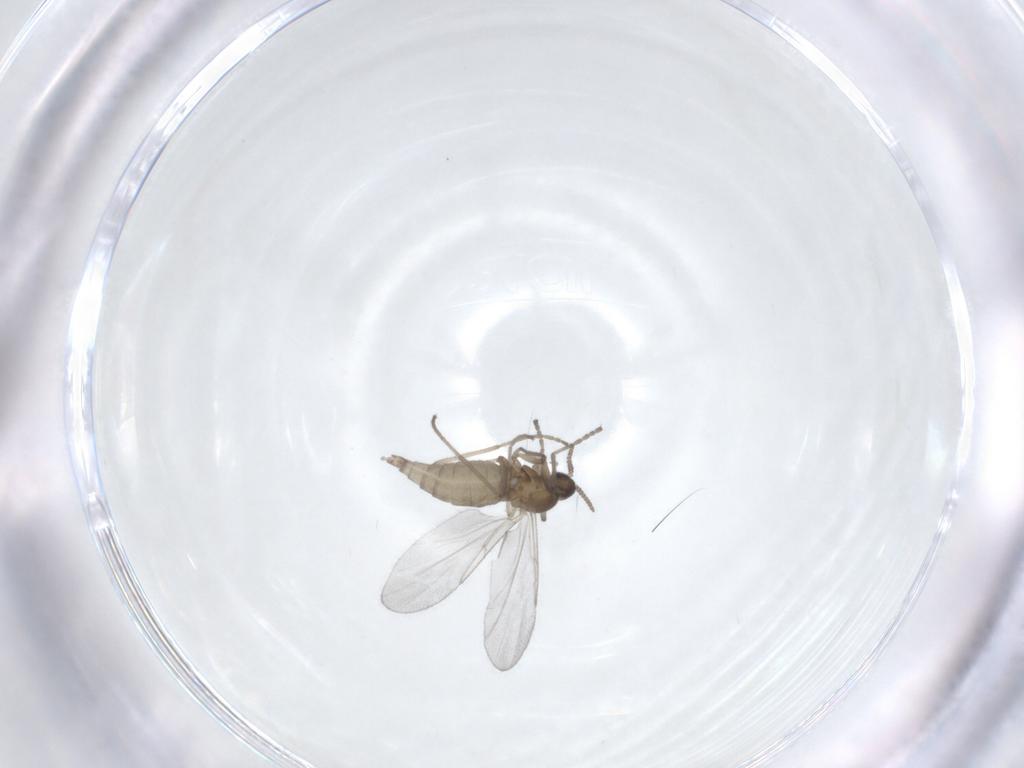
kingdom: Animalia
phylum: Arthropoda
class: Insecta
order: Diptera
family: Cecidomyiidae
